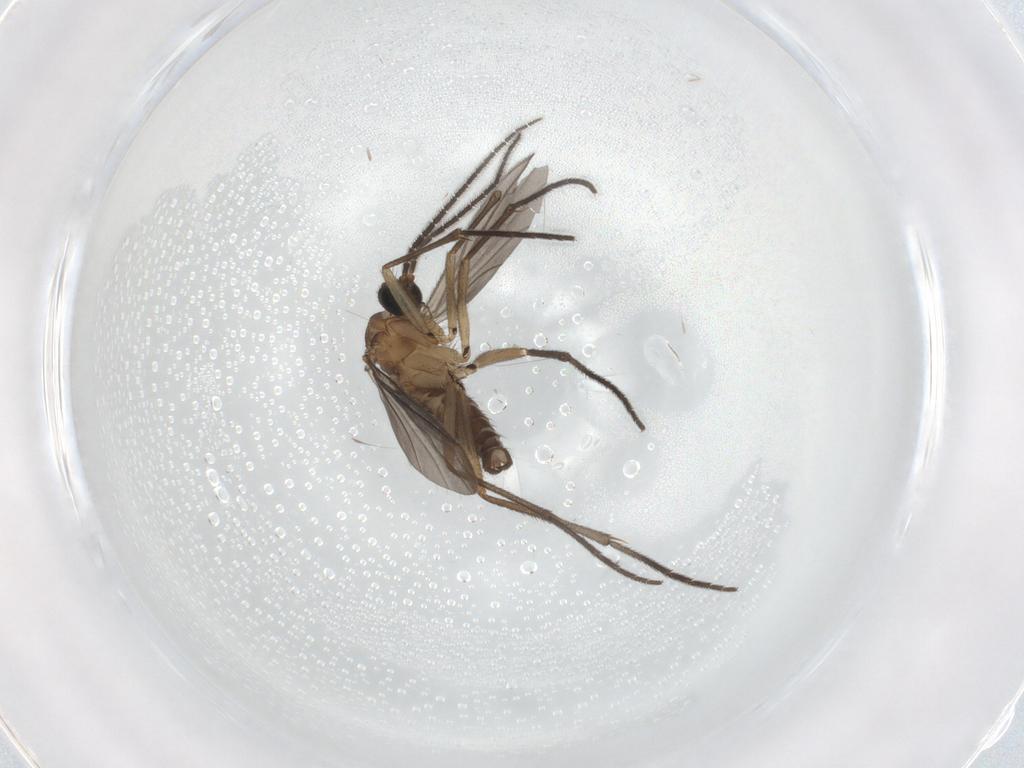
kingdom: Animalia
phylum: Arthropoda
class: Insecta
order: Diptera
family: Sciaridae
